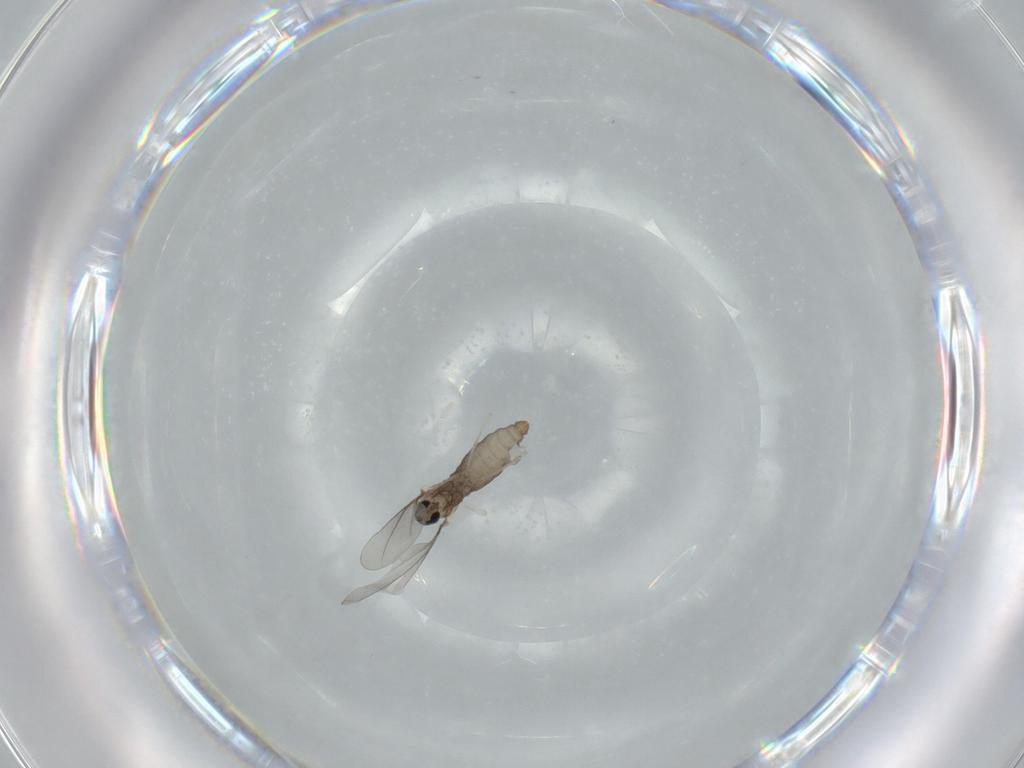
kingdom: Animalia
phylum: Arthropoda
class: Insecta
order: Diptera
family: Cecidomyiidae
